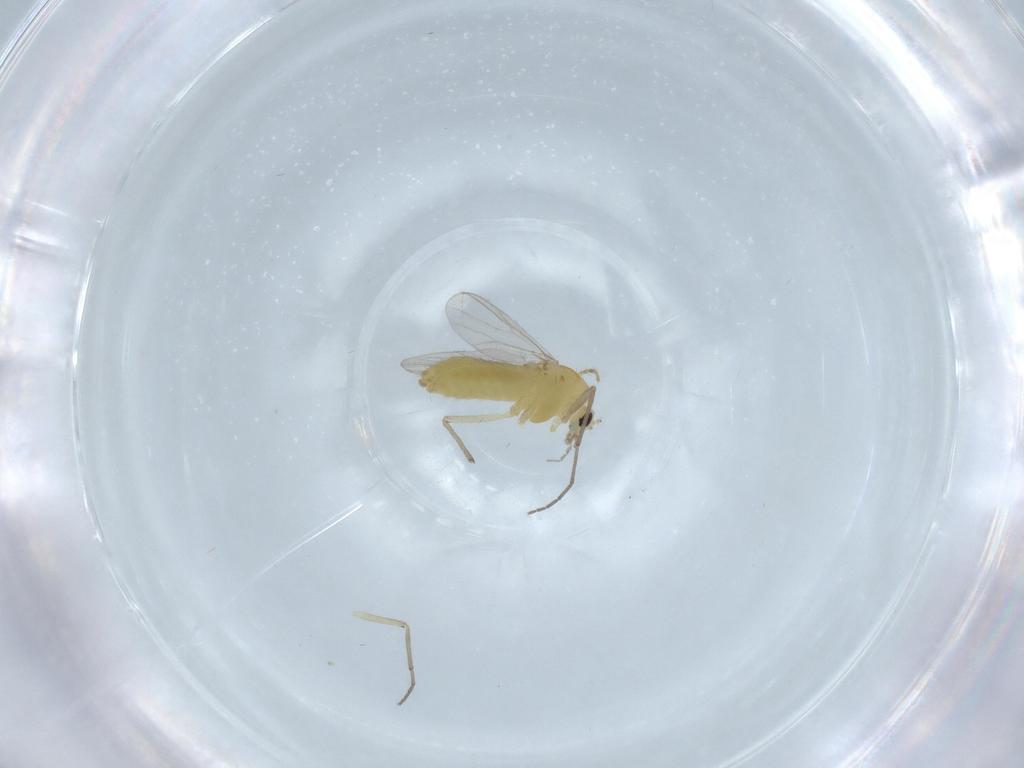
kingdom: Animalia
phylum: Arthropoda
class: Insecta
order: Diptera
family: Chironomidae
